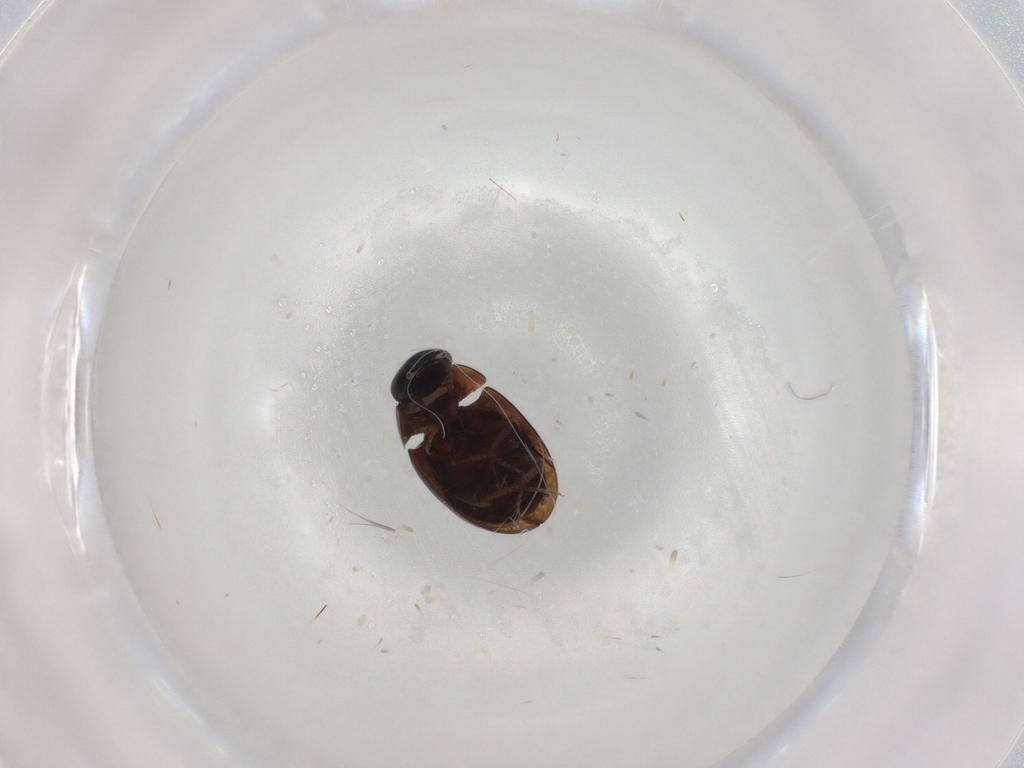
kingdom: Animalia
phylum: Arthropoda
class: Insecta
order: Coleoptera
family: Hydrophilidae
